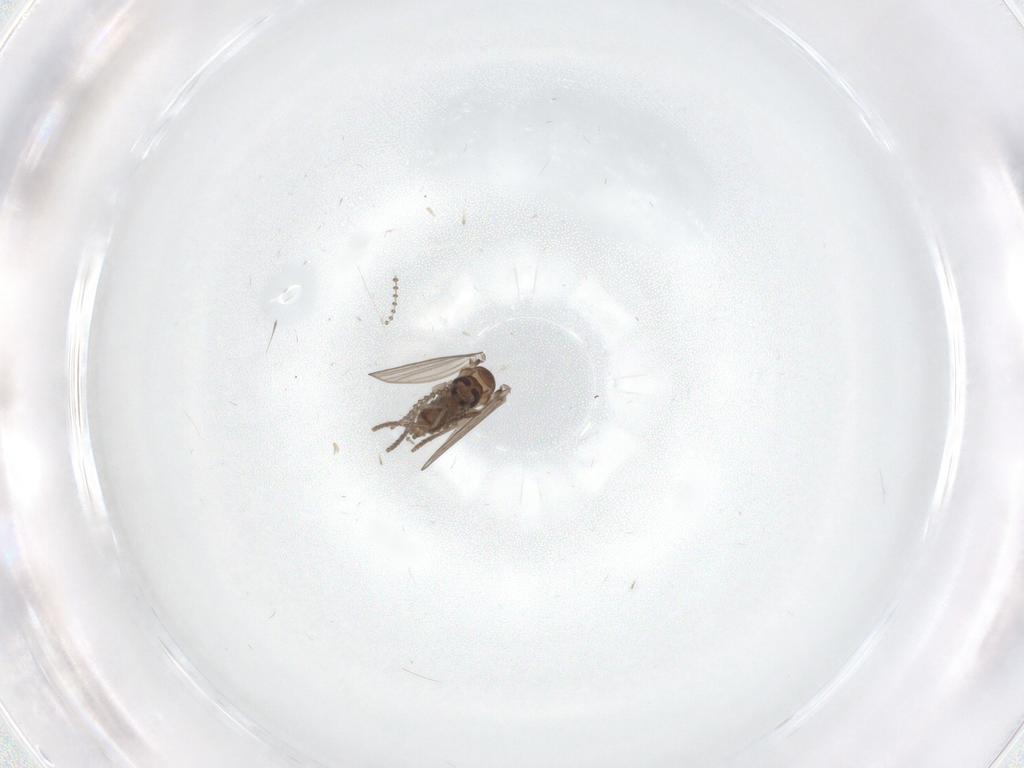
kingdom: Animalia
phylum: Arthropoda
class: Insecta
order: Diptera
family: Psychodidae
